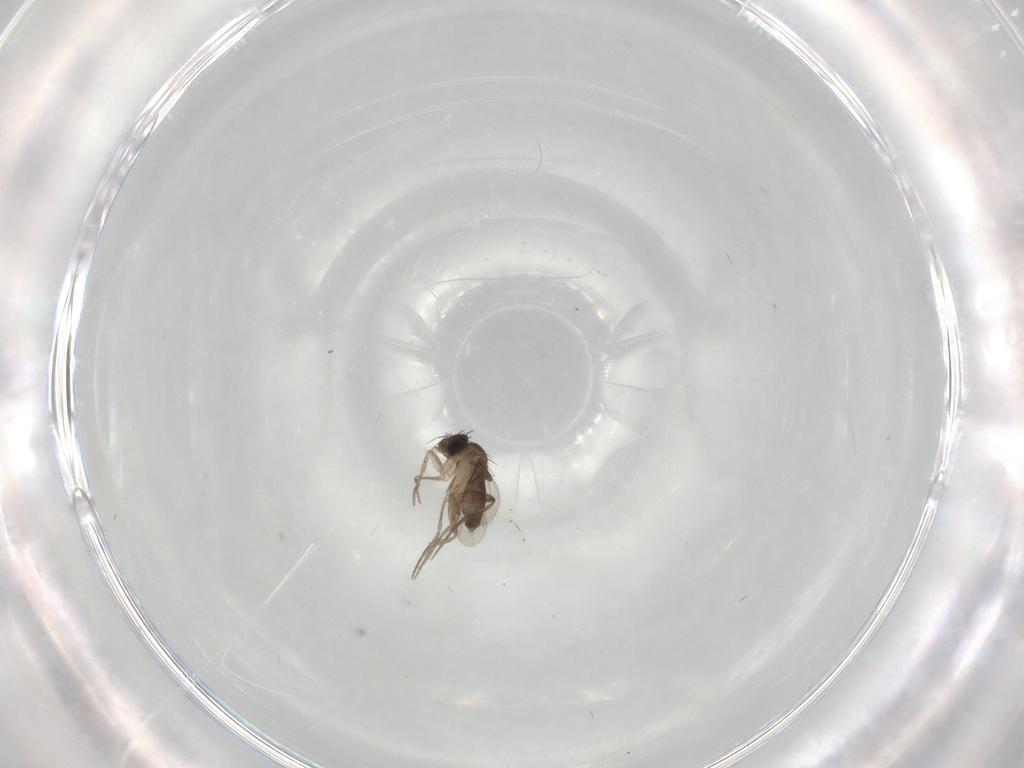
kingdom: Animalia
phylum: Arthropoda
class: Insecta
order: Diptera
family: Phoridae
